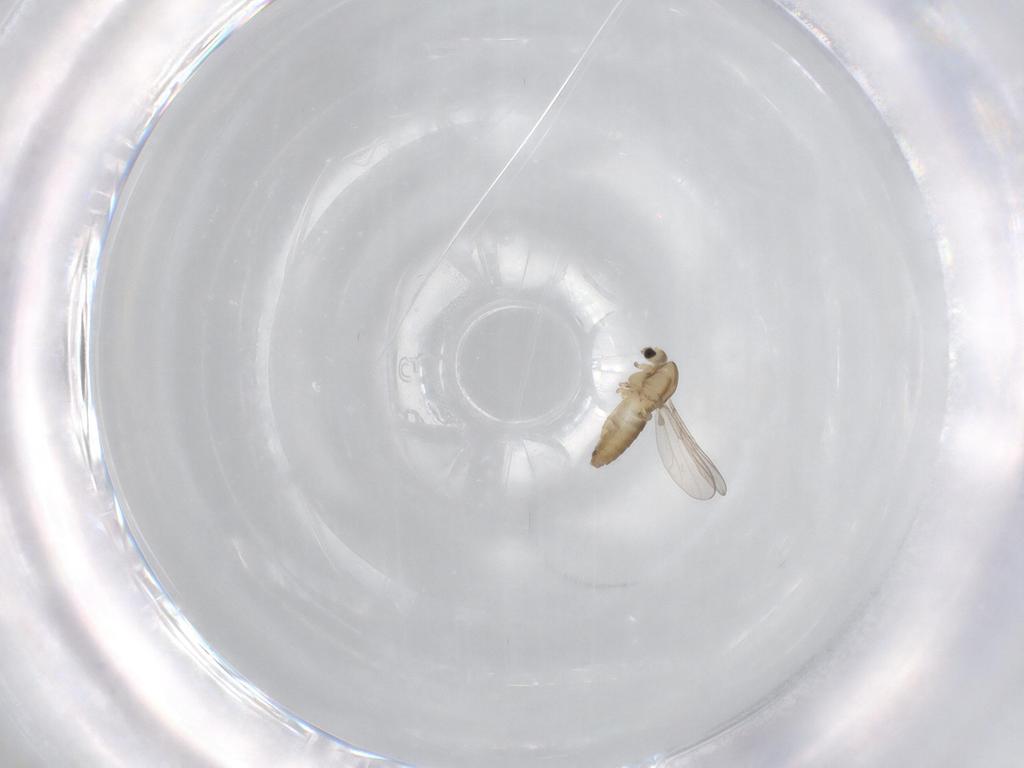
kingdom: Animalia
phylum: Arthropoda
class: Insecta
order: Diptera
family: Chironomidae
